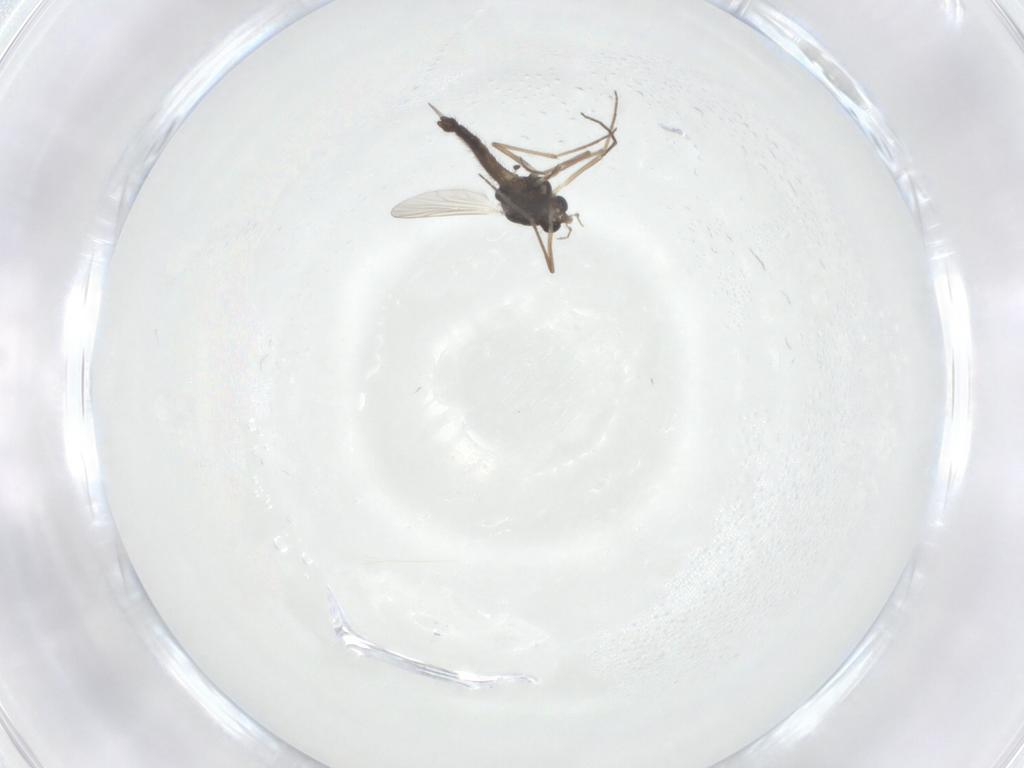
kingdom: Animalia
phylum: Arthropoda
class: Insecta
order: Diptera
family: Chironomidae
